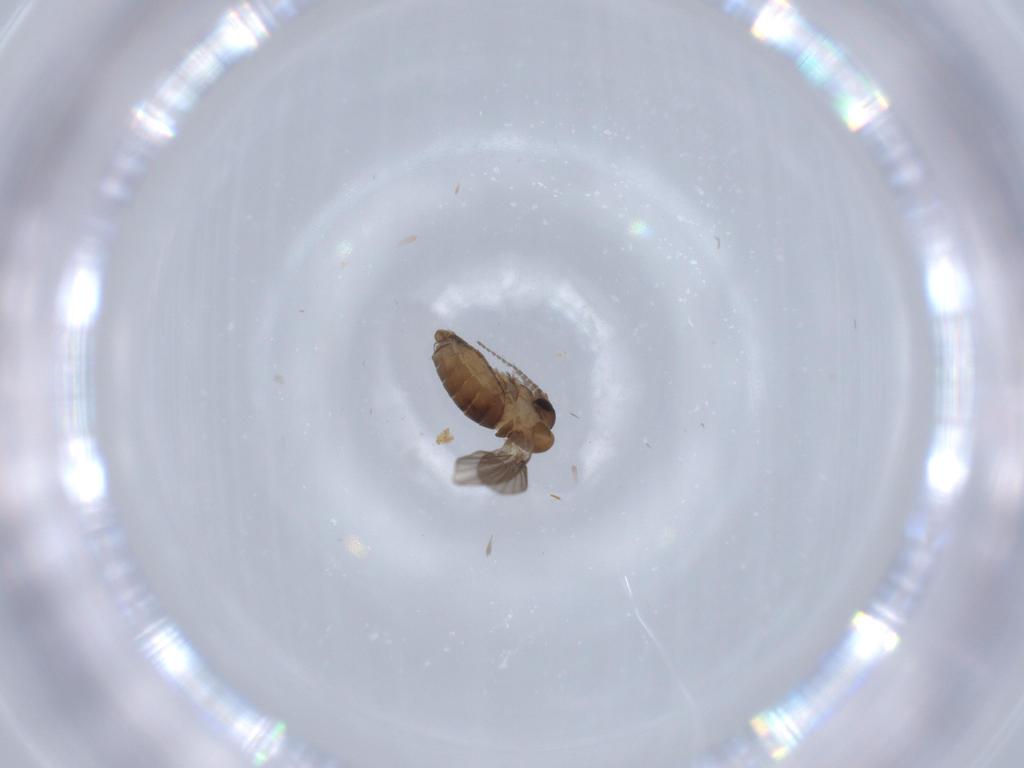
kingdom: Animalia
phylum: Arthropoda
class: Insecta
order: Diptera
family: Psychodidae
